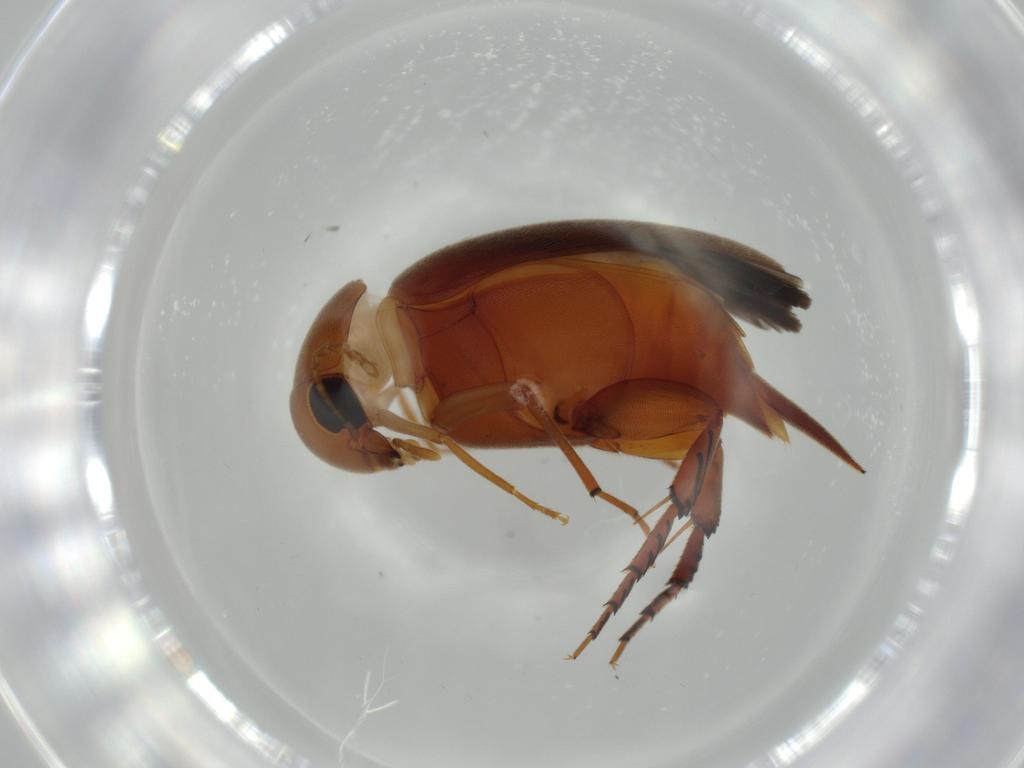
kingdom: Animalia
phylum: Arthropoda
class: Insecta
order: Coleoptera
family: Curculionidae
